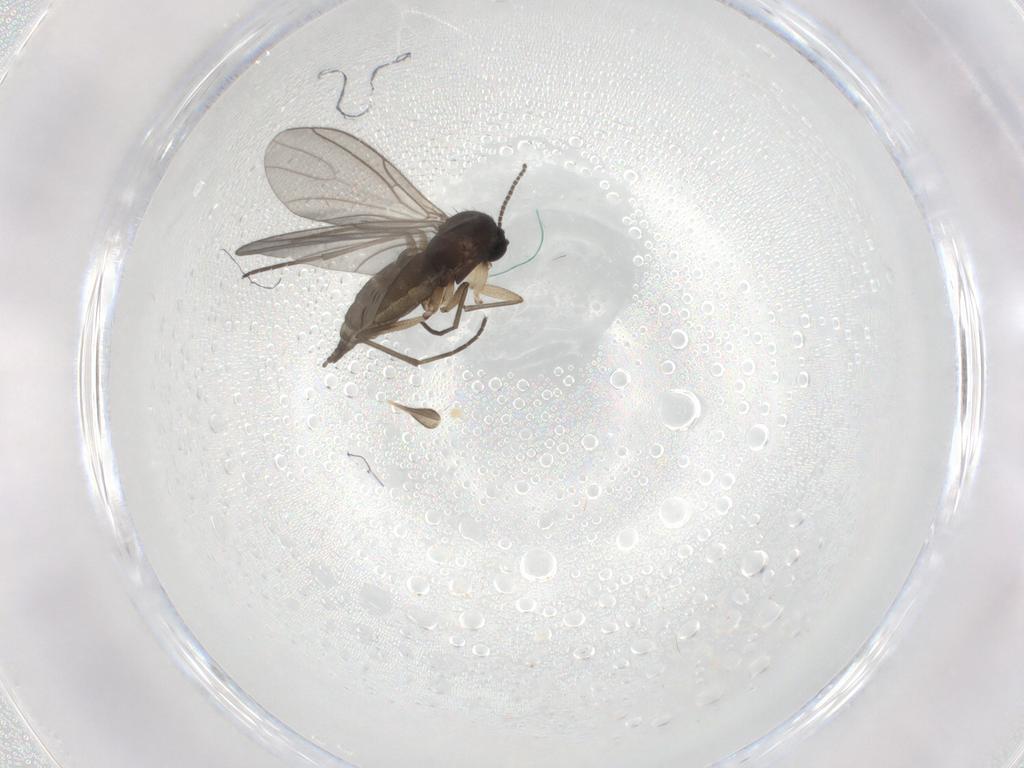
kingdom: Animalia
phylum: Arthropoda
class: Insecta
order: Diptera
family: Sciaridae
